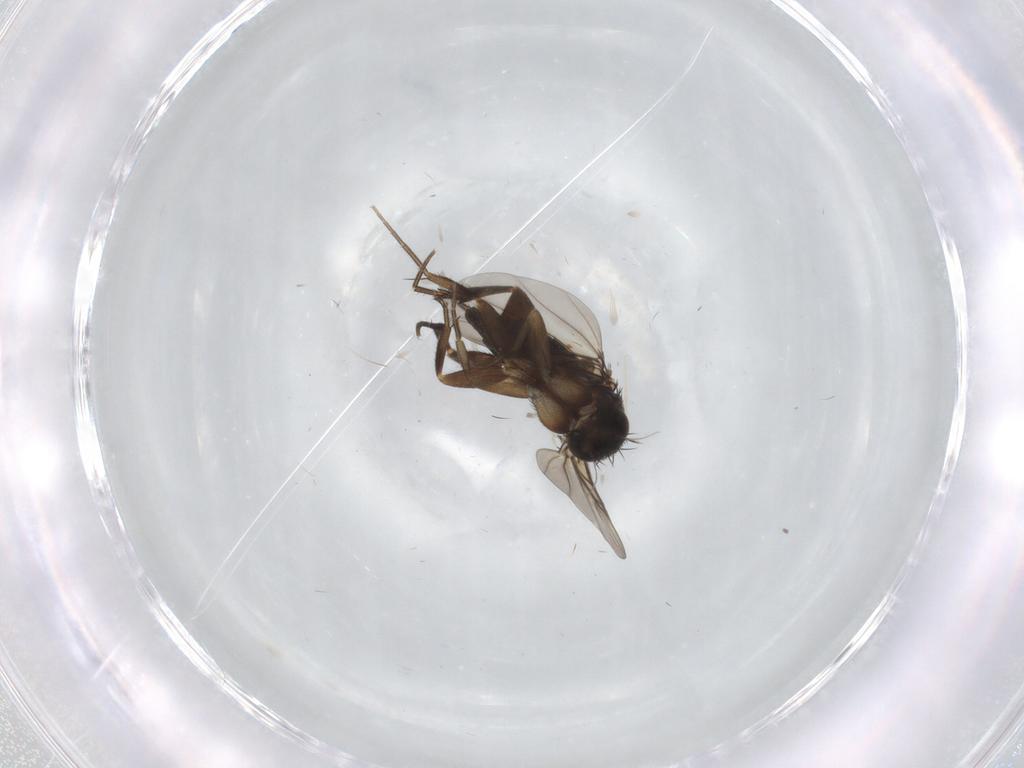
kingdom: Animalia
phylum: Arthropoda
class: Insecta
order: Diptera
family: Phoridae
